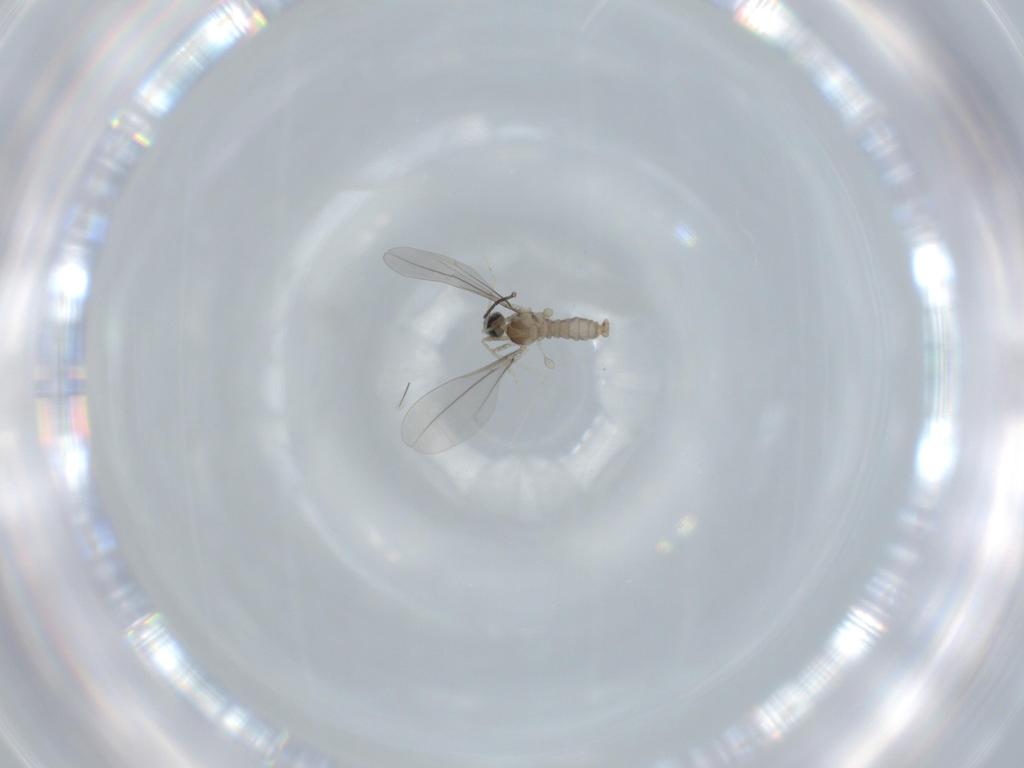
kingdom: Animalia
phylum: Arthropoda
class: Insecta
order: Diptera
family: Cecidomyiidae
